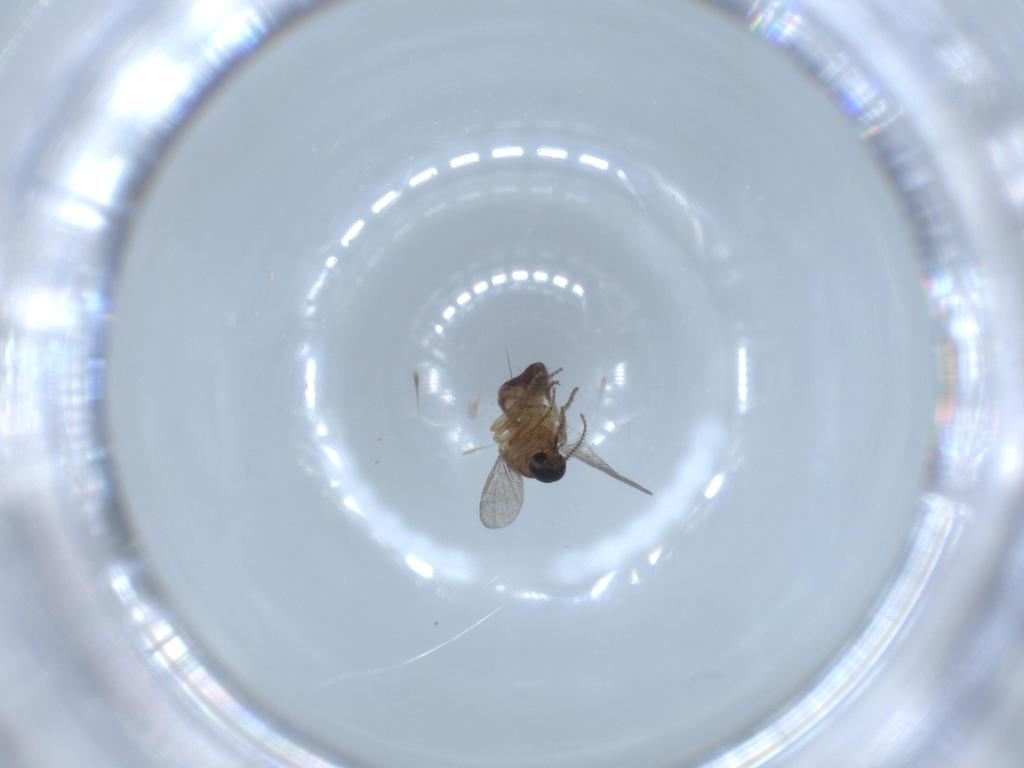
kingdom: Animalia
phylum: Arthropoda
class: Insecta
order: Diptera
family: Ceratopogonidae
